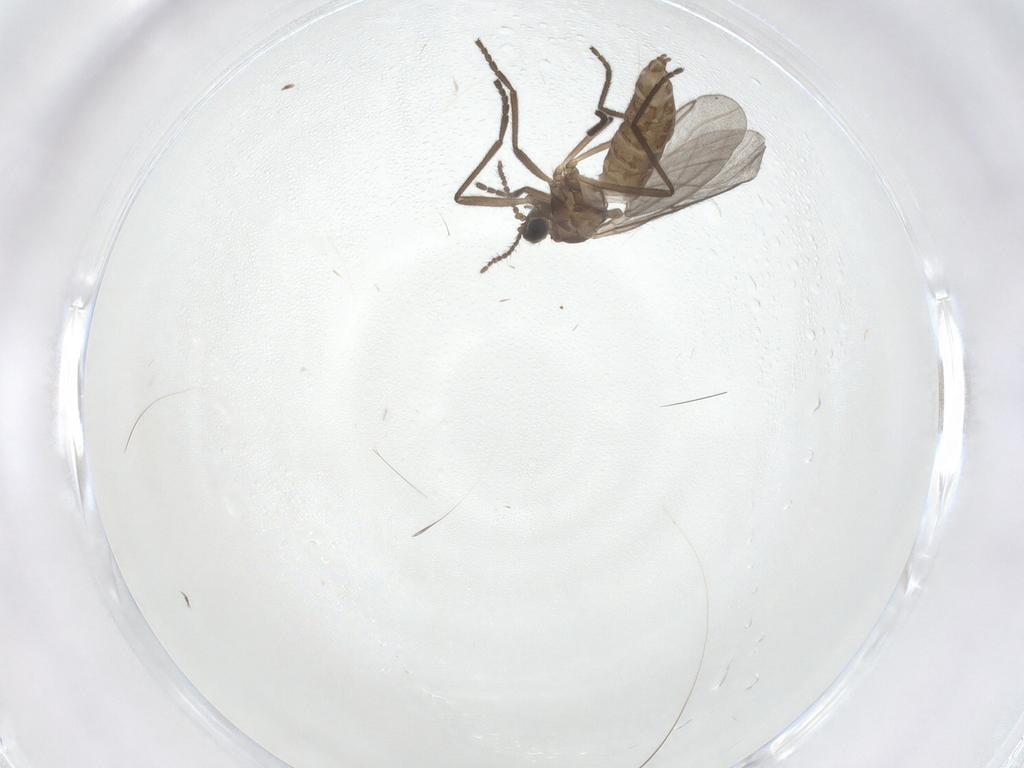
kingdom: Animalia
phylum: Arthropoda
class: Insecta
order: Diptera
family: Cecidomyiidae
